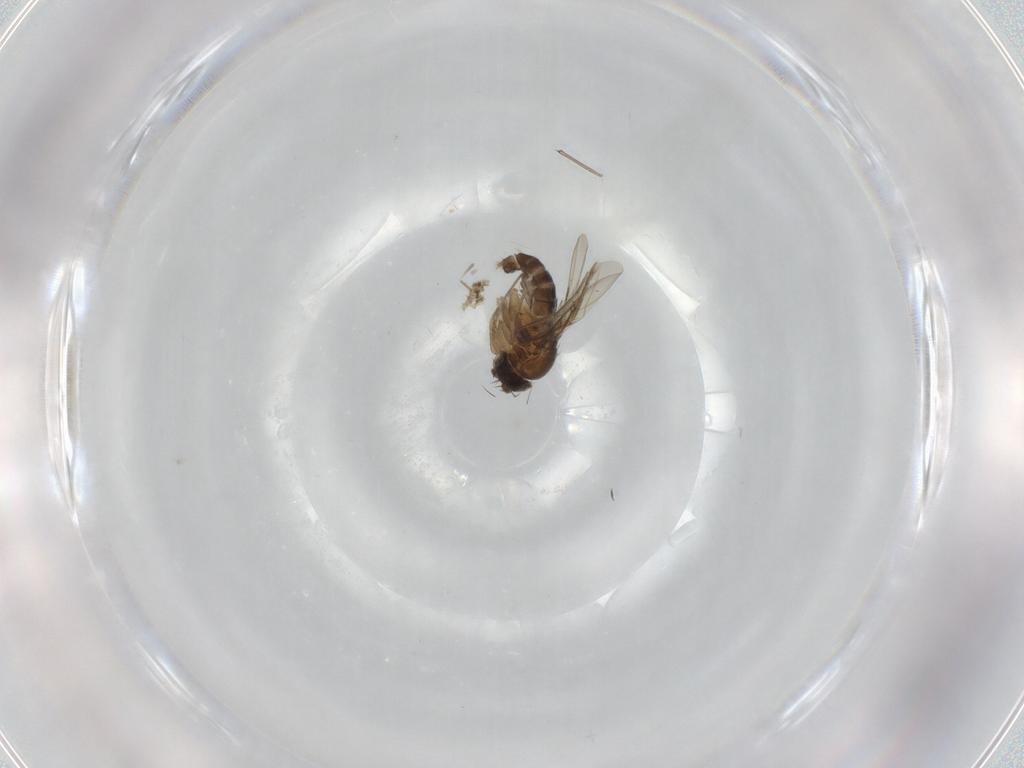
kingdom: Animalia
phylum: Arthropoda
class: Insecta
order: Diptera
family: Phoridae
